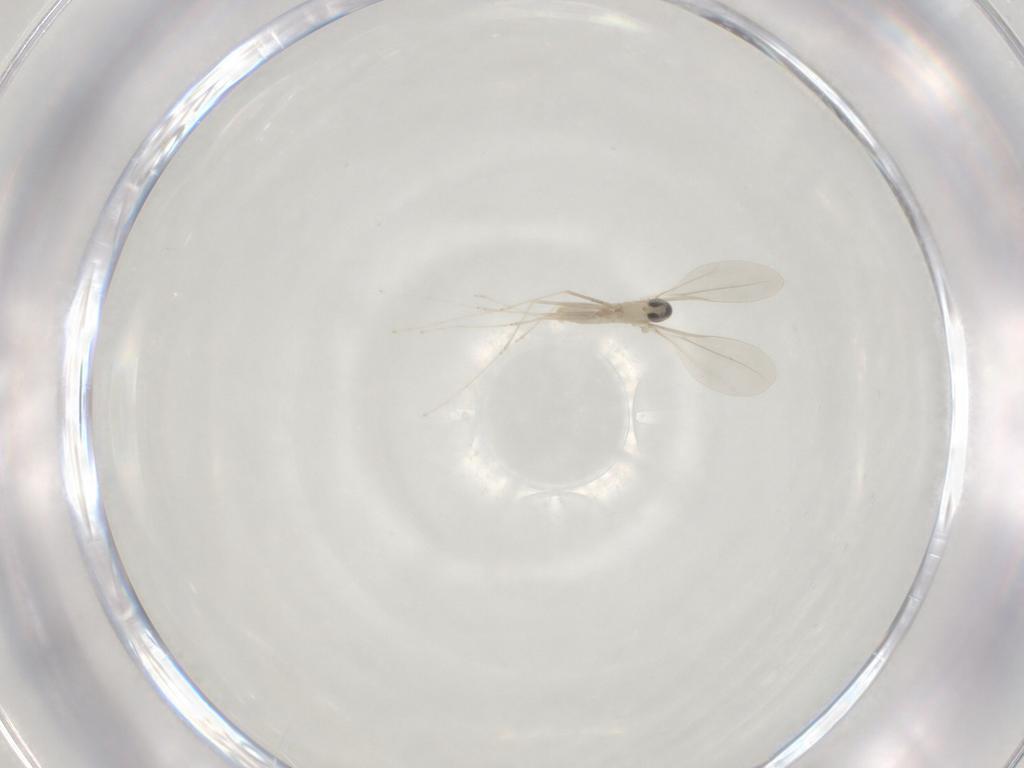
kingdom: Animalia
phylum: Arthropoda
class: Insecta
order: Diptera
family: Cecidomyiidae
